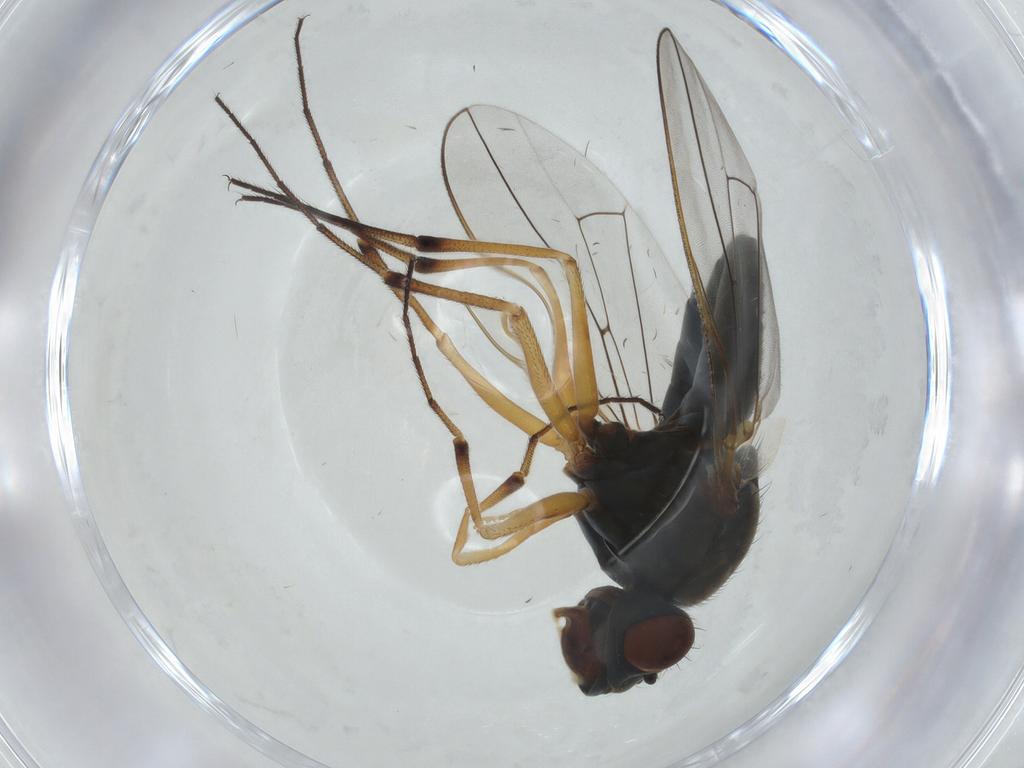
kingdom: Animalia
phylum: Arthropoda
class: Insecta
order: Diptera
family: Ephydridae
